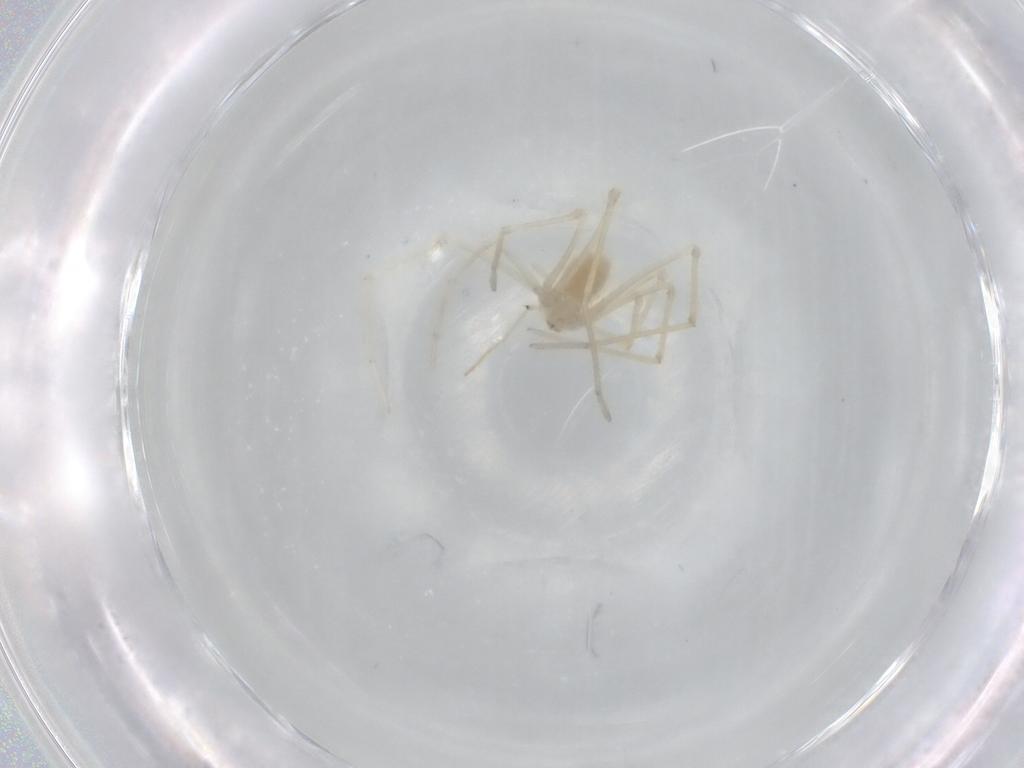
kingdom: Animalia
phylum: Arthropoda
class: Arachnida
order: Araneae
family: Pholcidae
